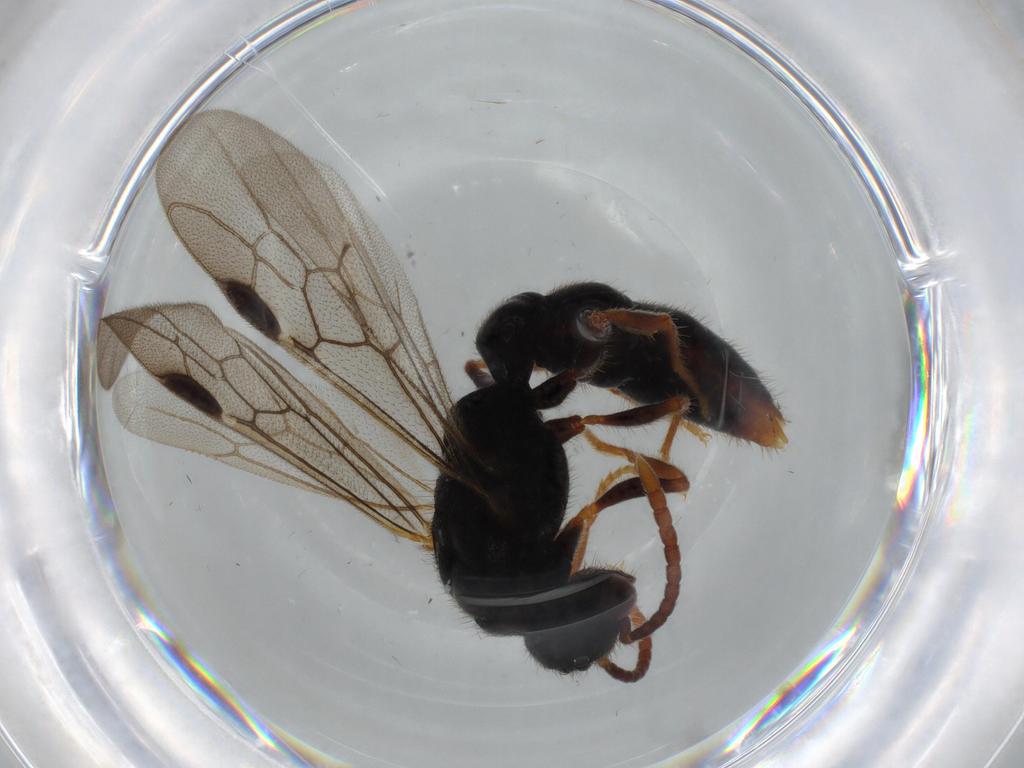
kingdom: Animalia
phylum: Arthropoda
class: Insecta
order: Hymenoptera
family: Formicidae
